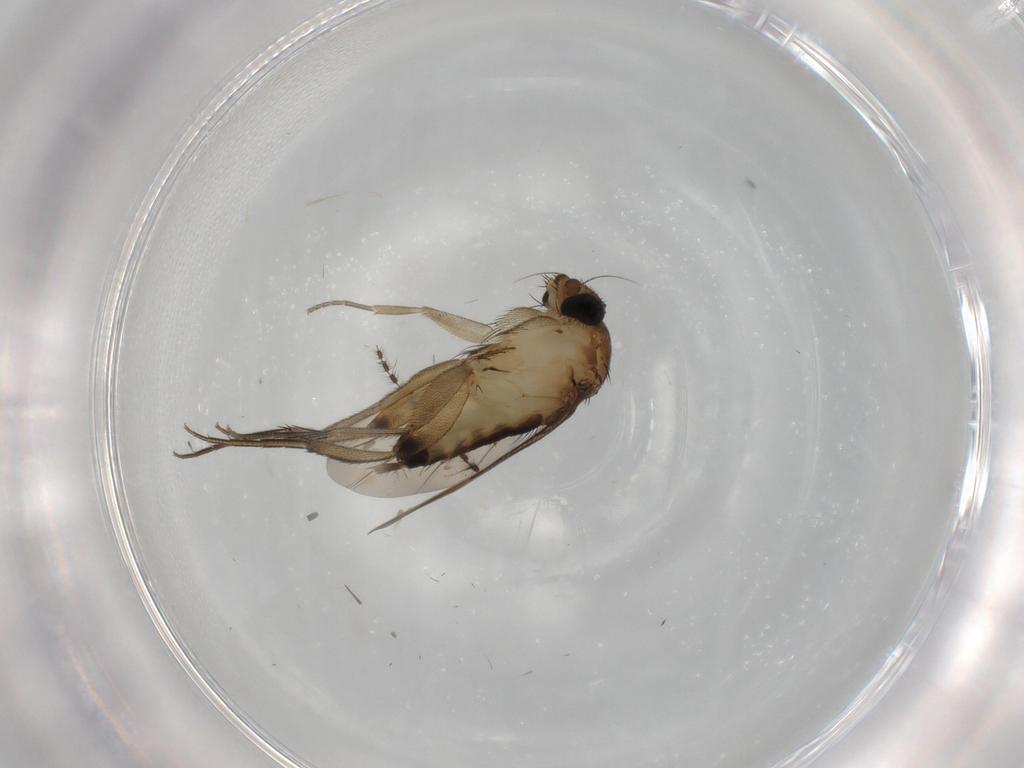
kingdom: Animalia
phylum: Arthropoda
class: Insecta
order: Diptera
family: Phoridae
